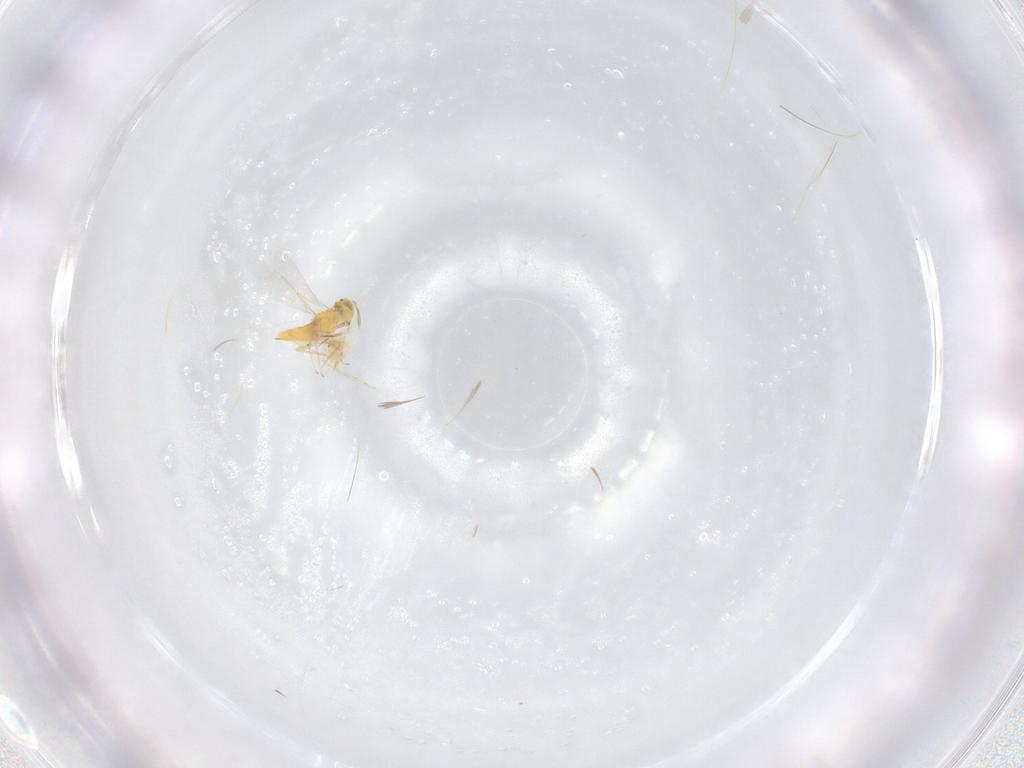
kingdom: Animalia
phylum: Arthropoda
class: Insecta
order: Hymenoptera
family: Aphelinidae
